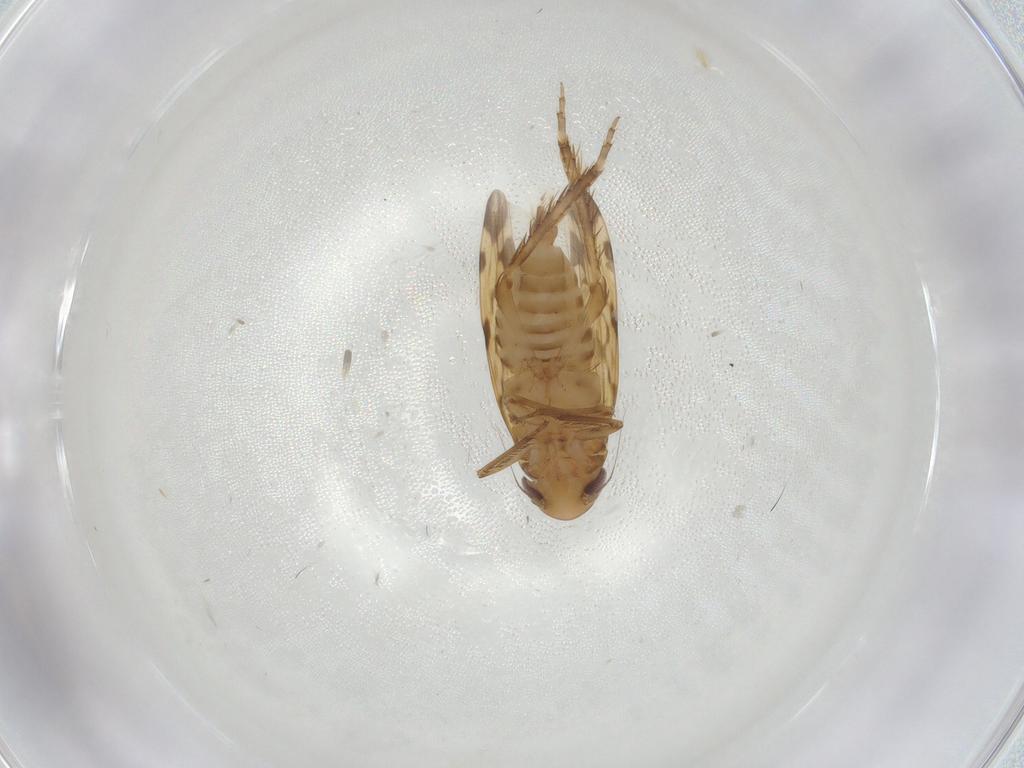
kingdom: Animalia
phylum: Arthropoda
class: Insecta
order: Hemiptera
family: Cicadellidae
